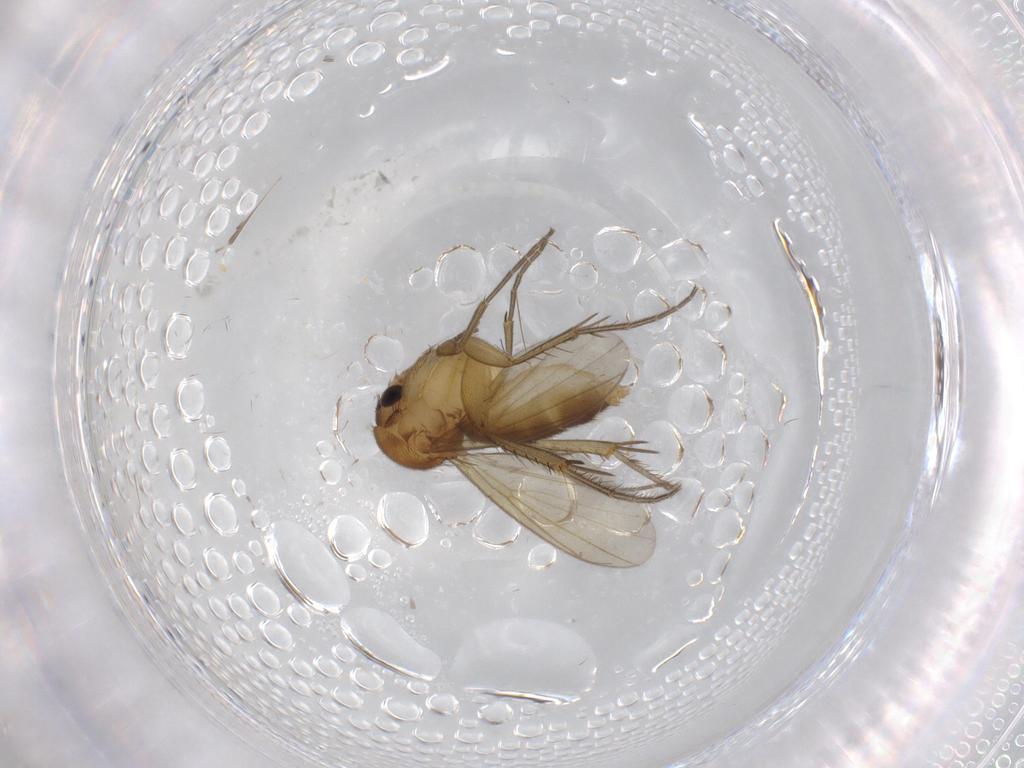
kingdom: Animalia
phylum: Arthropoda
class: Insecta
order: Diptera
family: Mycetophilidae
